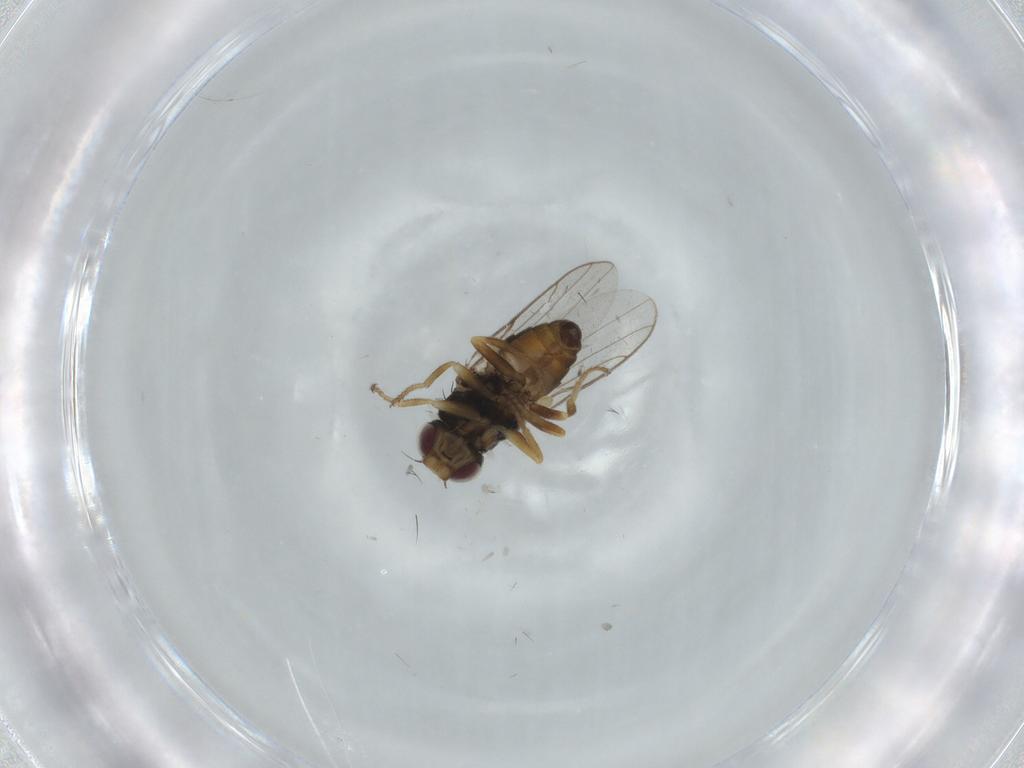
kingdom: Animalia
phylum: Arthropoda
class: Insecta
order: Diptera
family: Chloropidae
